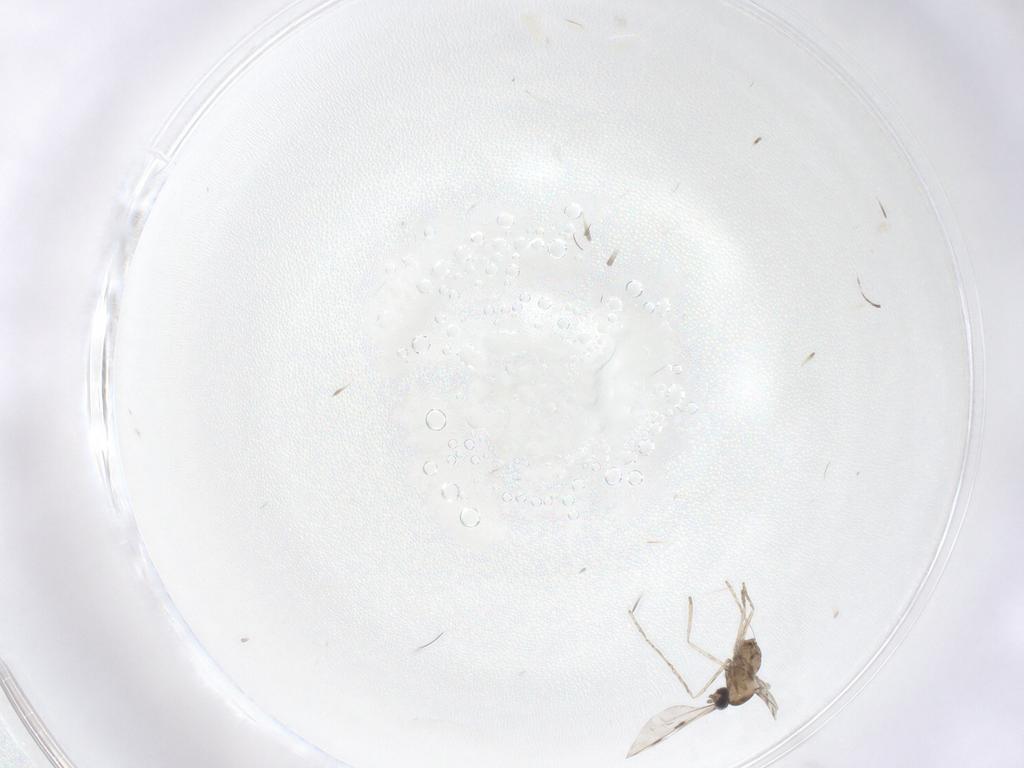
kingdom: Animalia
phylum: Arthropoda
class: Insecta
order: Diptera
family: Cecidomyiidae
